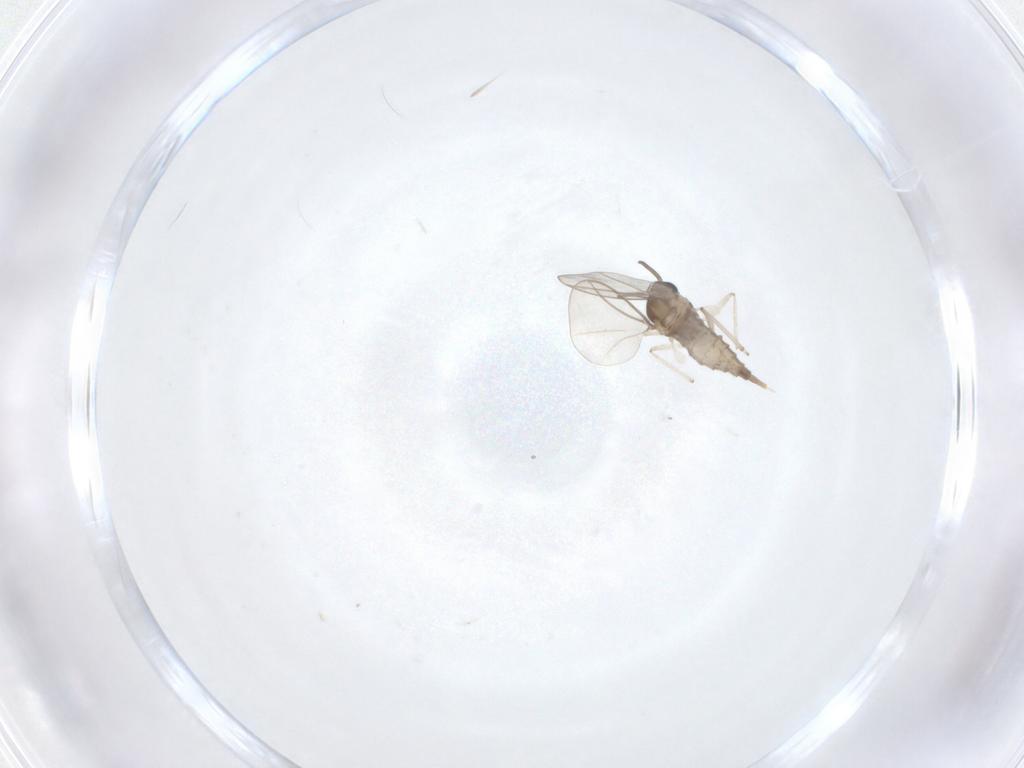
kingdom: Animalia
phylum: Arthropoda
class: Insecta
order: Diptera
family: Cecidomyiidae
